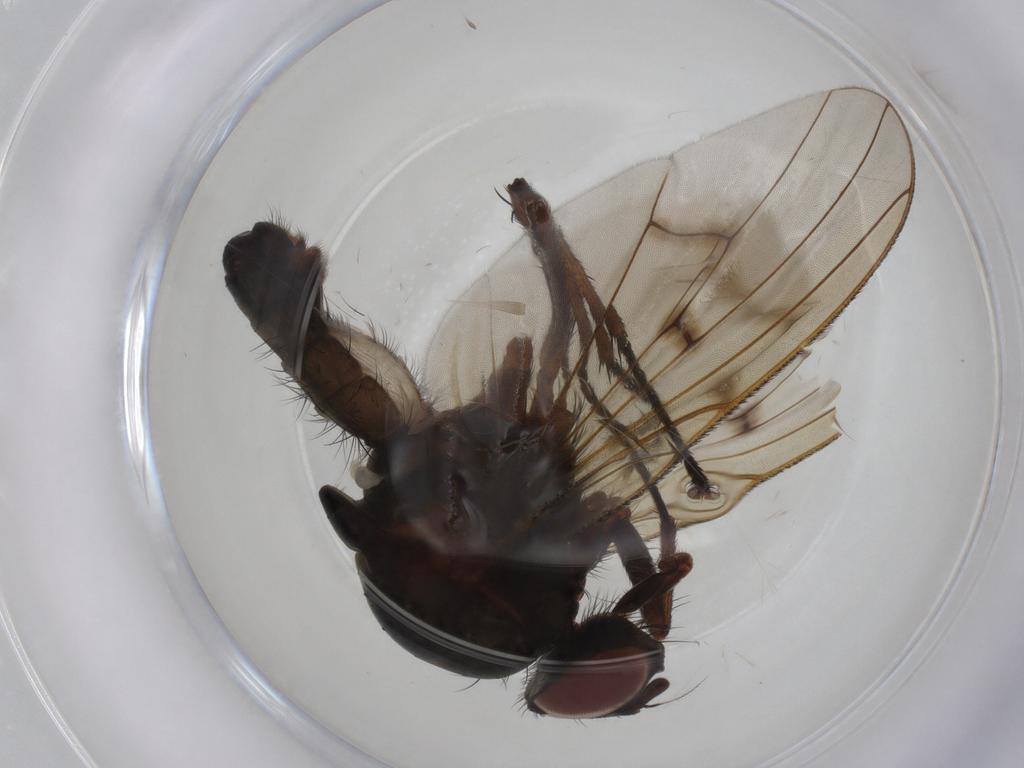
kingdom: Animalia
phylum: Arthropoda
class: Insecta
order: Diptera
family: Anthomyiidae
